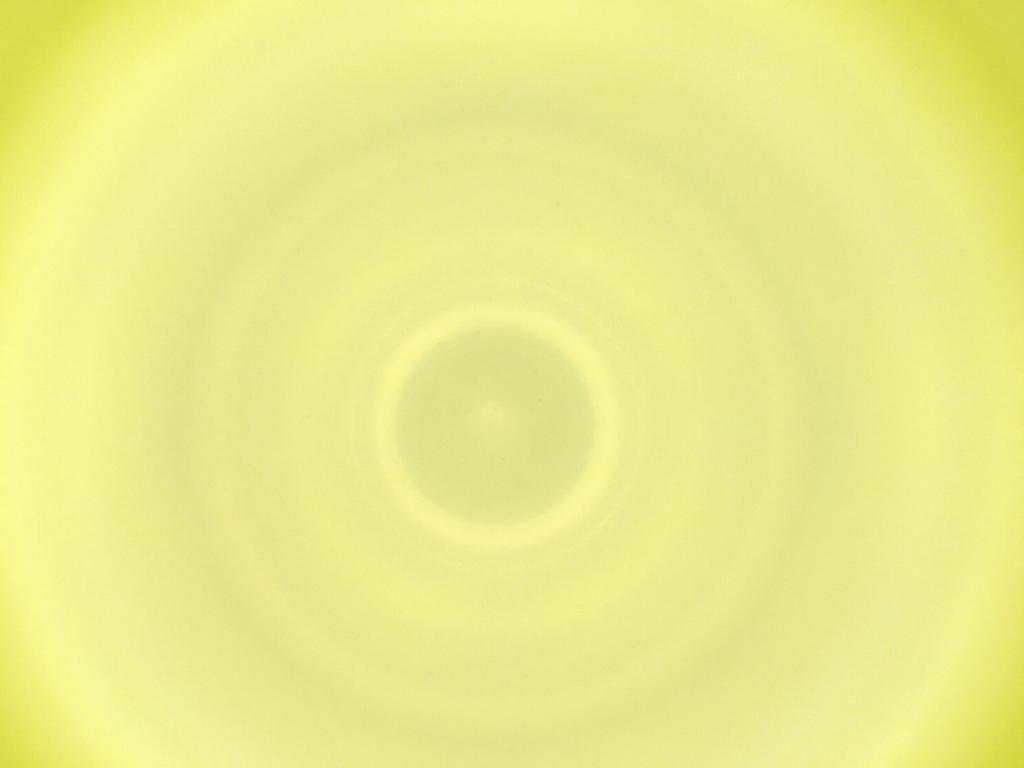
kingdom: Animalia
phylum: Arthropoda
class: Insecta
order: Diptera
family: Cecidomyiidae
